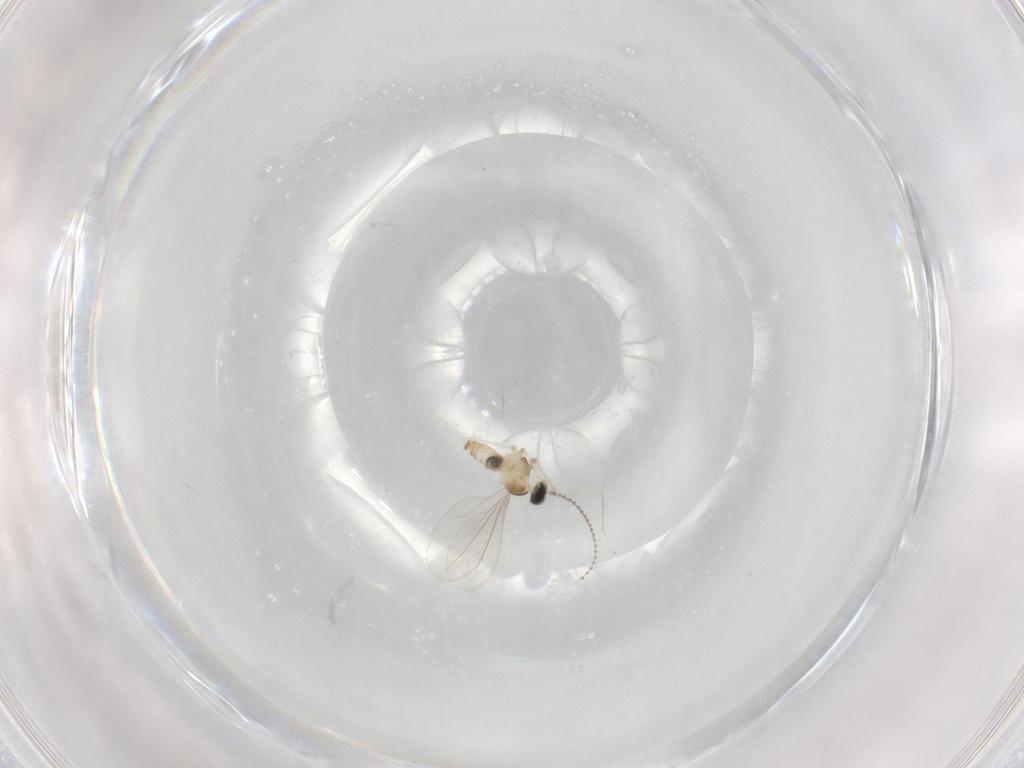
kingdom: Animalia
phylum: Arthropoda
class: Insecta
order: Diptera
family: Cecidomyiidae
